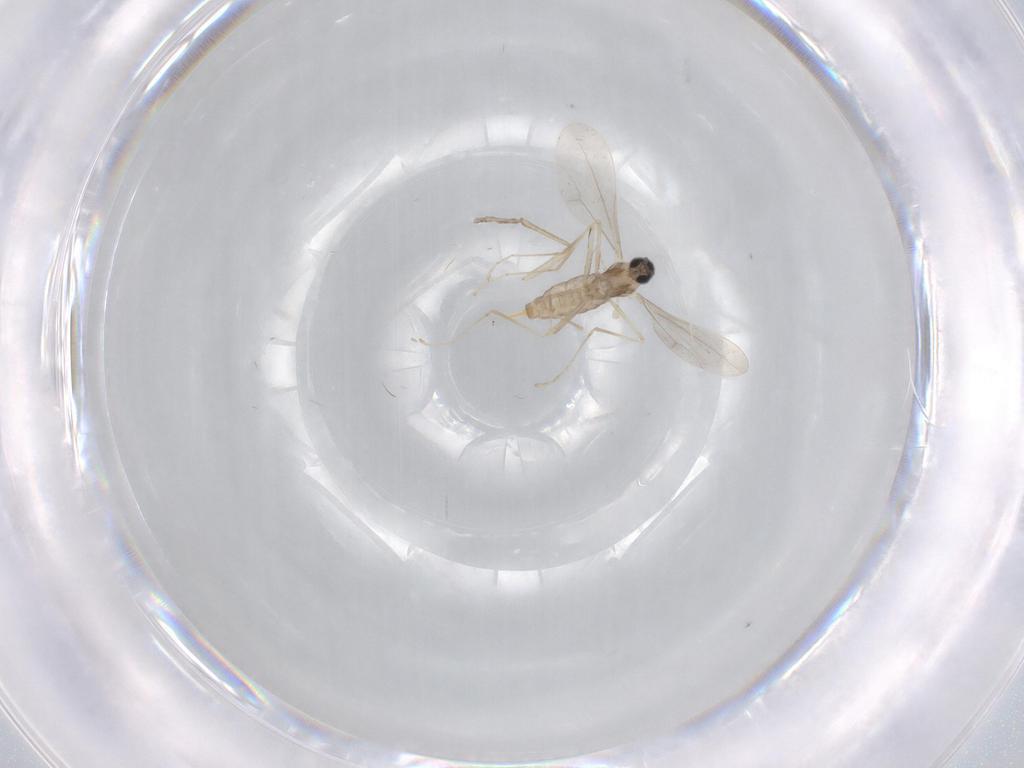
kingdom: Animalia
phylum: Arthropoda
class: Insecta
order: Diptera
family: Cecidomyiidae
